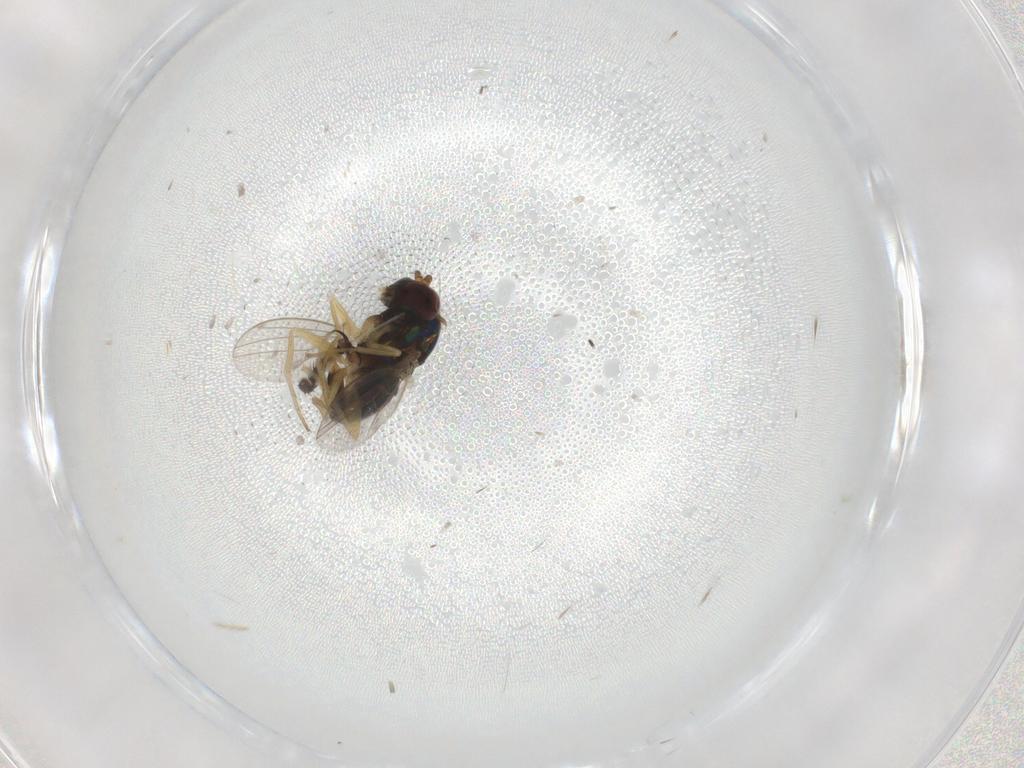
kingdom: Animalia
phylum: Arthropoda
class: Insecta
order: Diptera
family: Dolichopodidae
